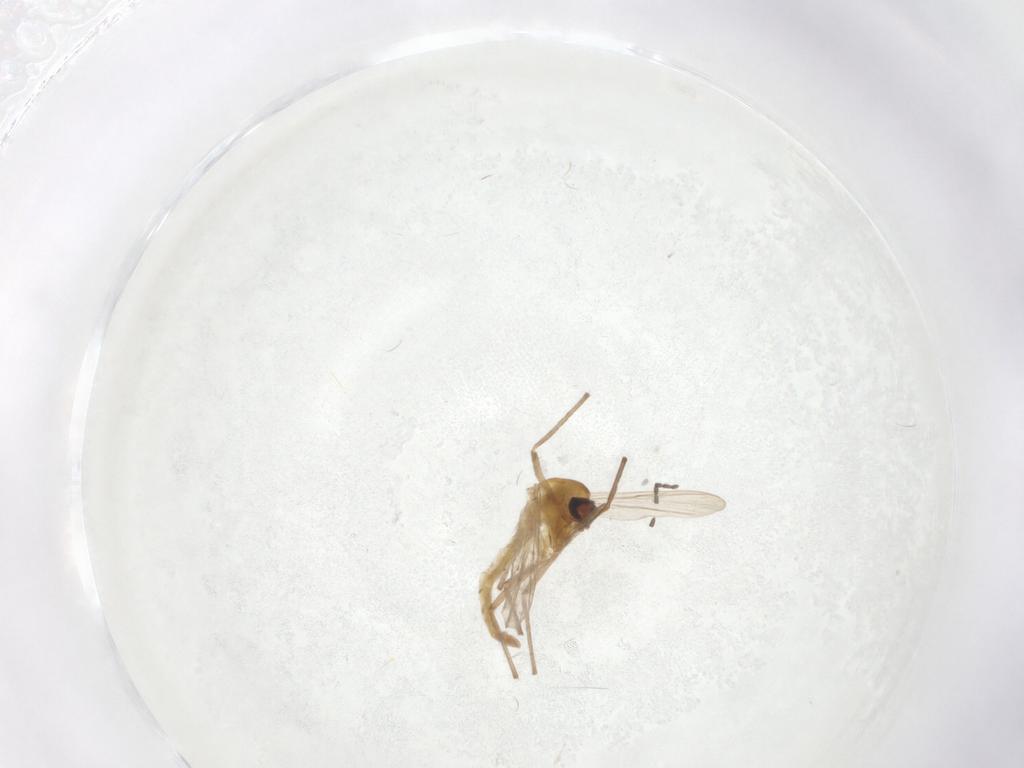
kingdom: Animalia
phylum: Arthropoda
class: Insecta
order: Diptera
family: Chironomidae
